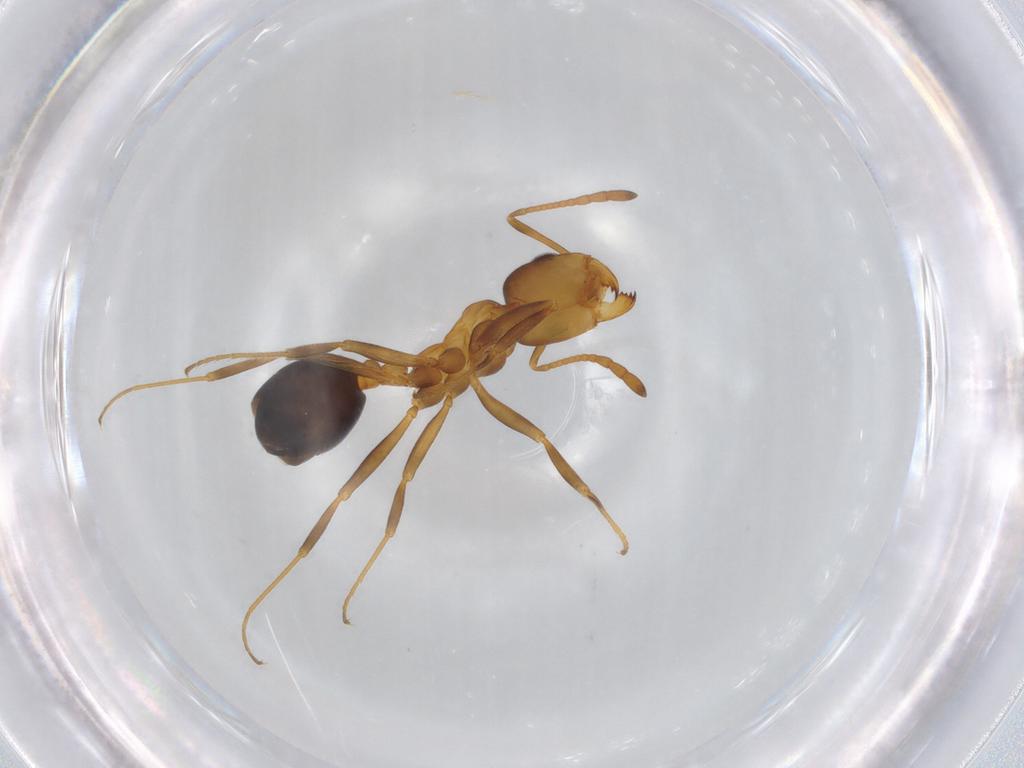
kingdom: Animalia
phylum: Arthropoda
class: Insecta
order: Hymenoptera
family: Formicidae
